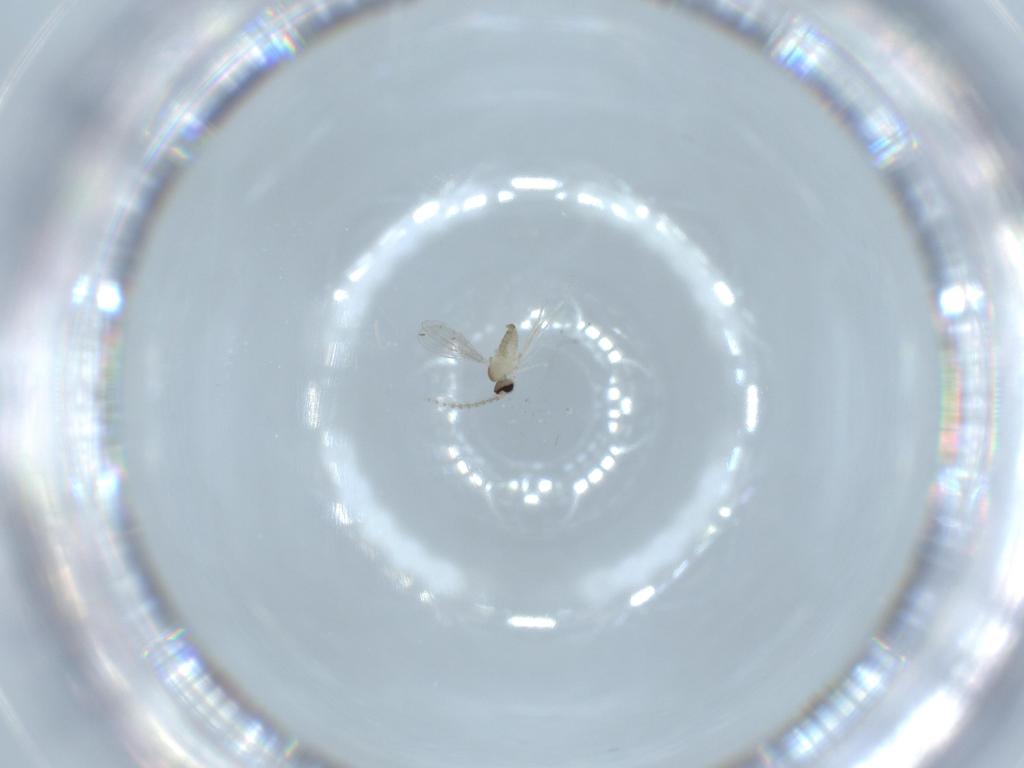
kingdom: Animalia
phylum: Arthropoda
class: Insecta
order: Diptera
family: Cecidomyiidae
